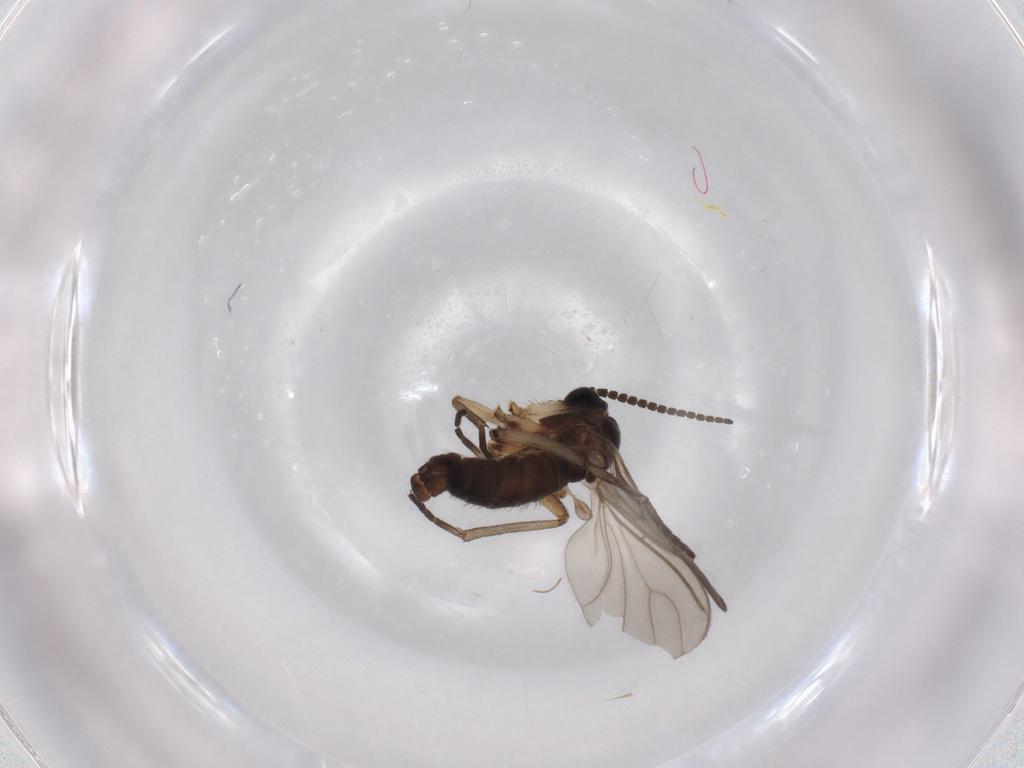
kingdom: Animalia
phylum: Arthropoda
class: Insecta
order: Diptera
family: Sciaridae
